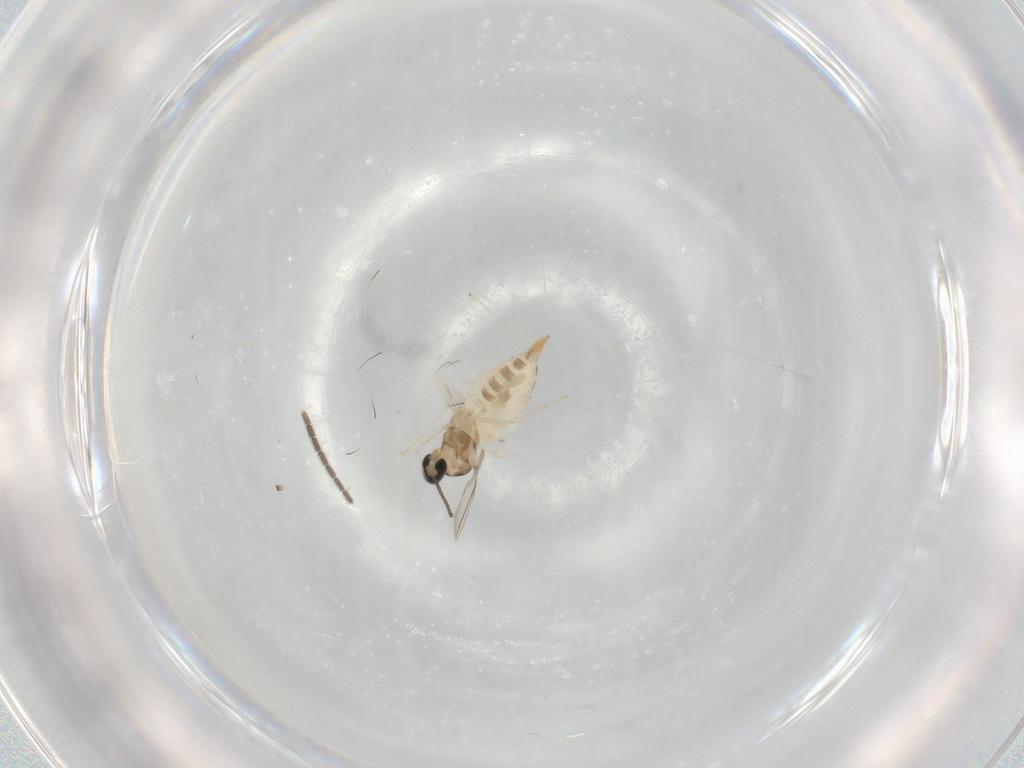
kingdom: Animalia
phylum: Arthropoda
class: Insecta
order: Diptera
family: Cecidomyiidae
